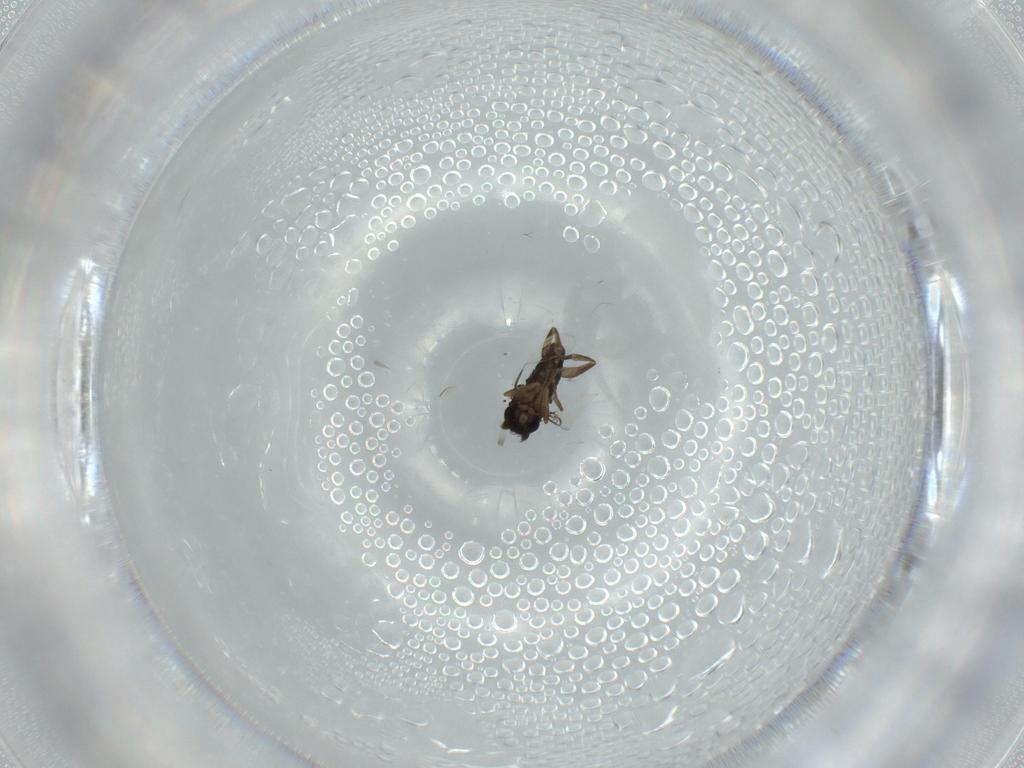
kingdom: Animalia
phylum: Arthropoda
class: Insecta
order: Diptera
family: Phoridae
